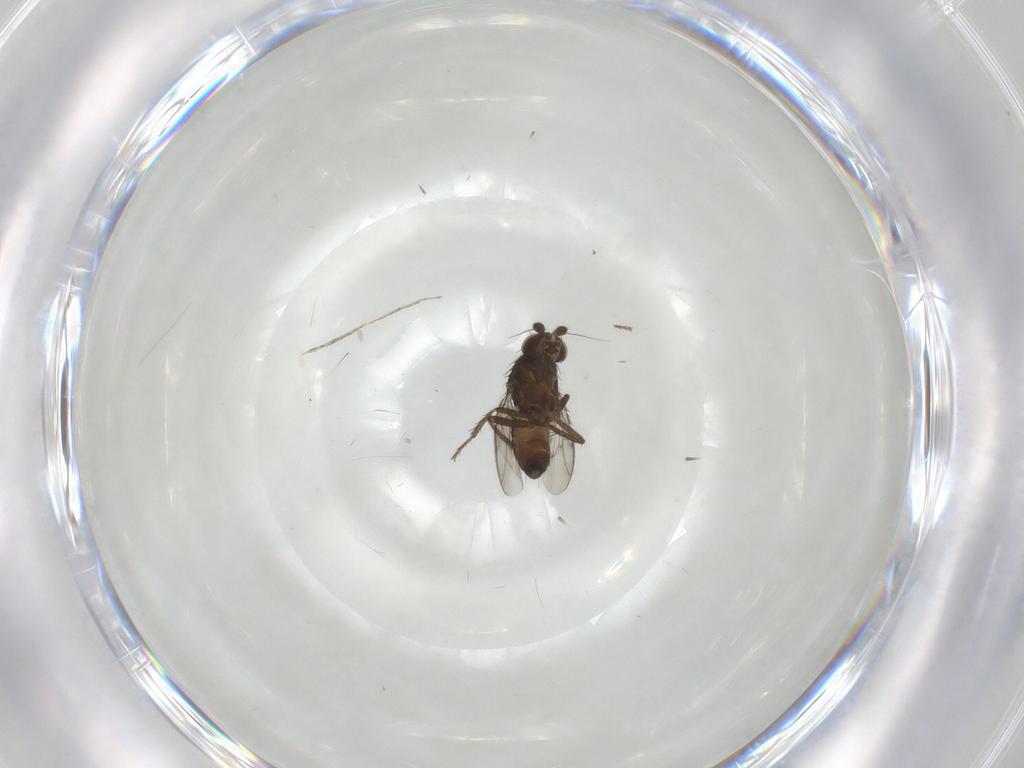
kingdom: Animalia
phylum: Arthropoda
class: Insecta
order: Diptera
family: Sphaeroceridae
